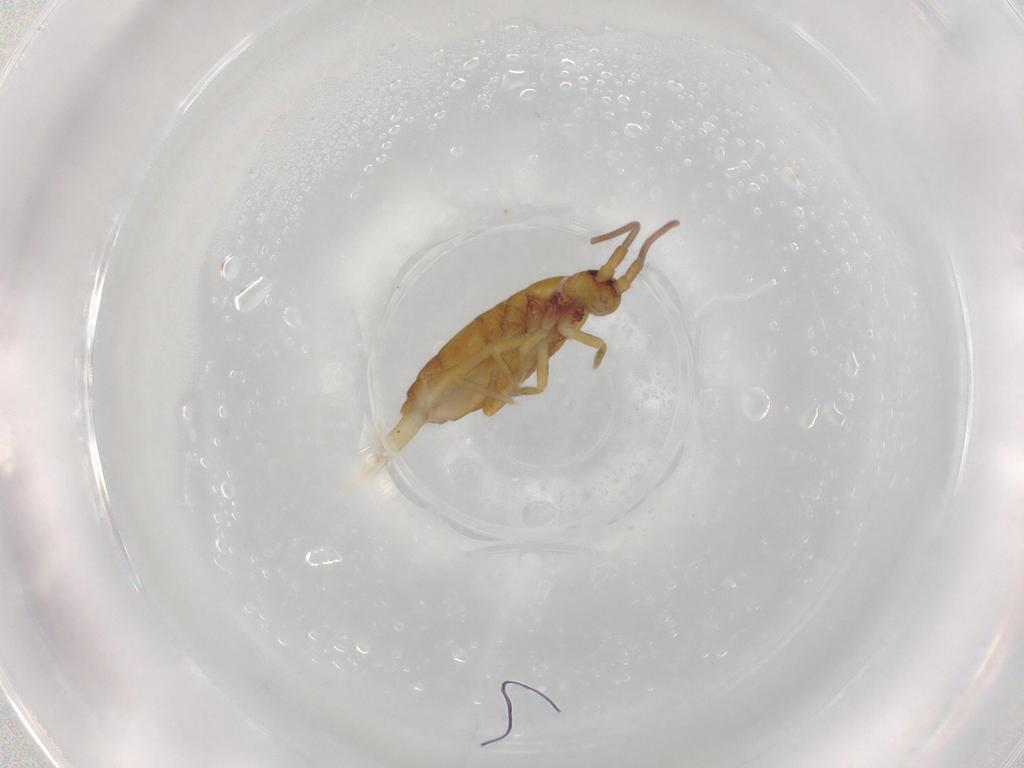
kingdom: Animalia
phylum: Arthropoda
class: Collembola
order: Entomobryomorpha
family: Tomoceridae
